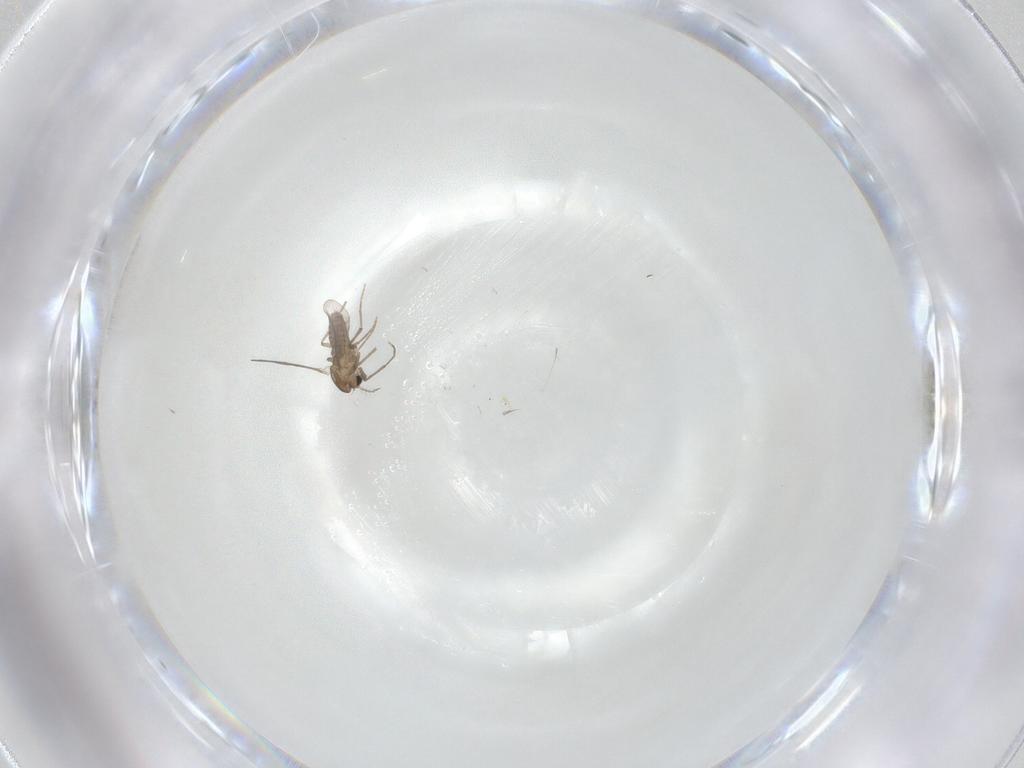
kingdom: Animalia
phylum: Arthropoda
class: Insecta
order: Diptera
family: Chironomidae
